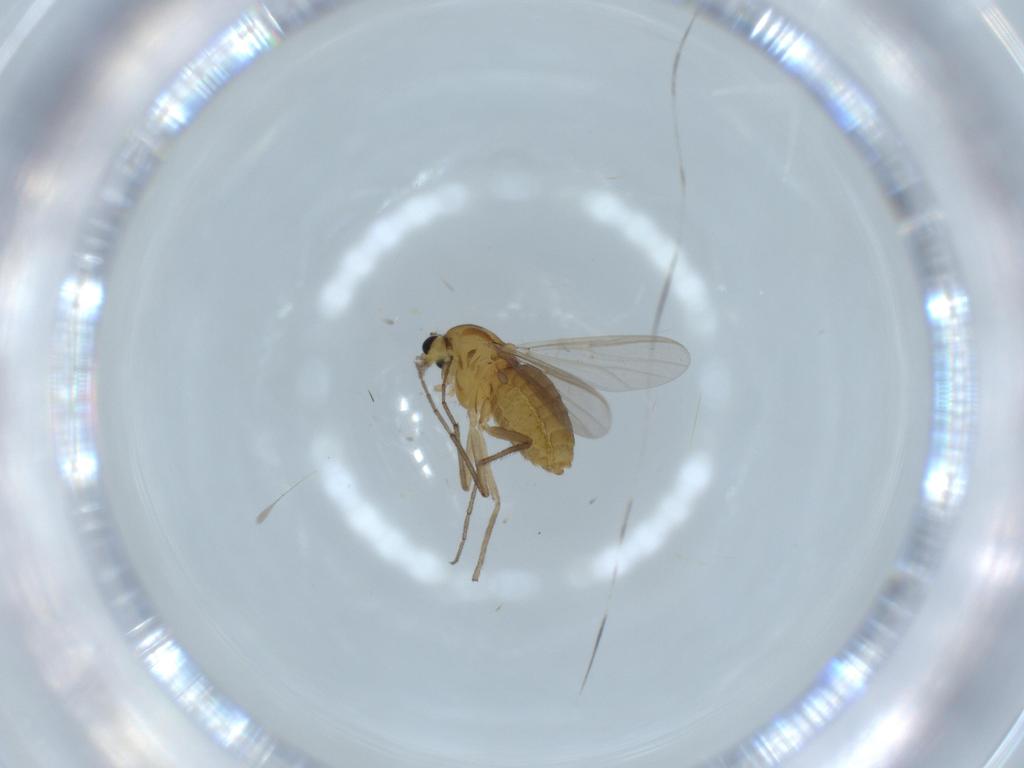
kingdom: Animalia
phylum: Arthropoda
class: Insecta
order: Diptera
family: Chironomidae
